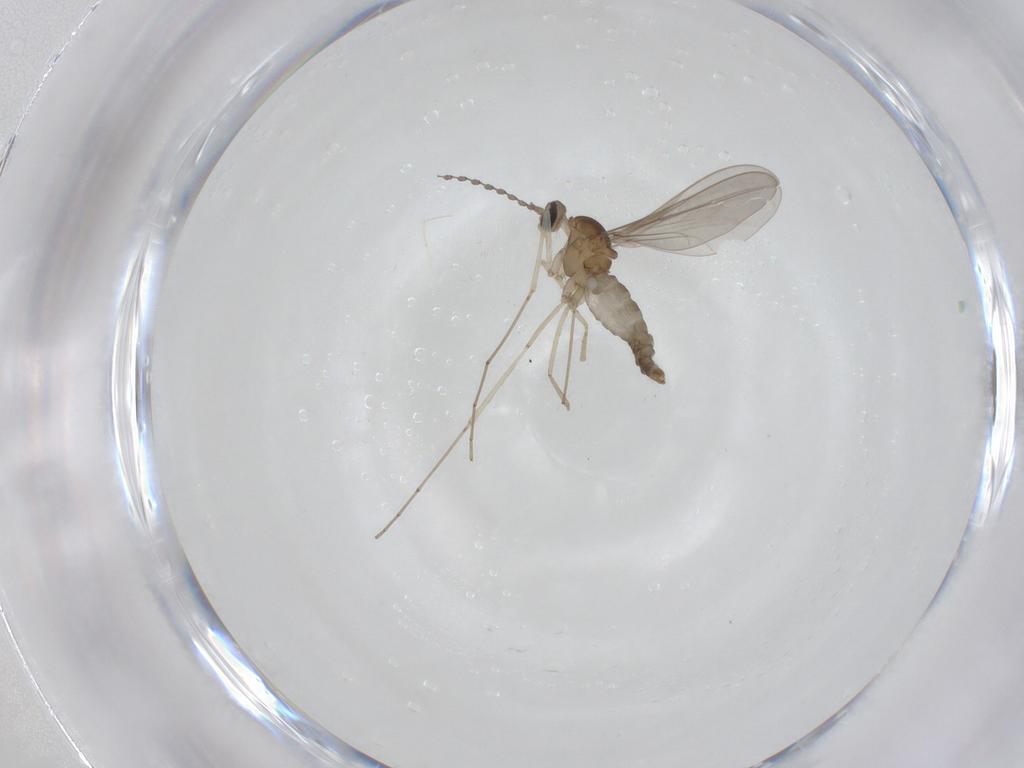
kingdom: Animalia
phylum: Arthropoda
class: Insecta
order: Diptera
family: Cecidomyiidae
